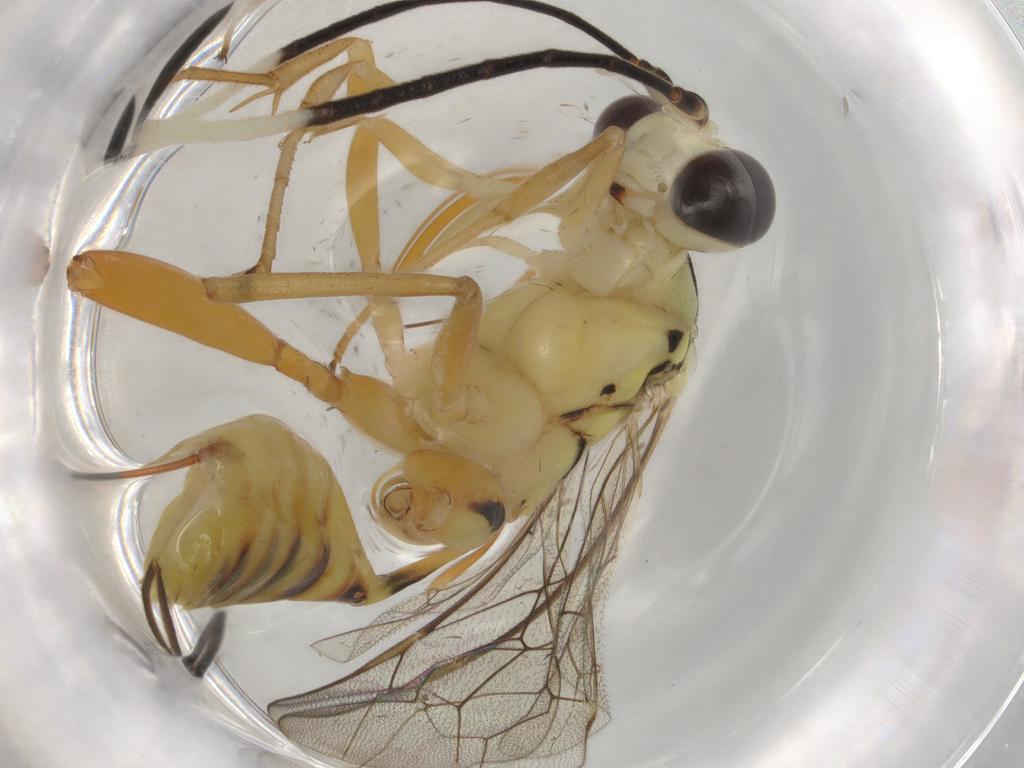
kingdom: Animalia
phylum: Arthropoda
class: Insecta
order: Hymenoptera
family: Ichneumonidae
